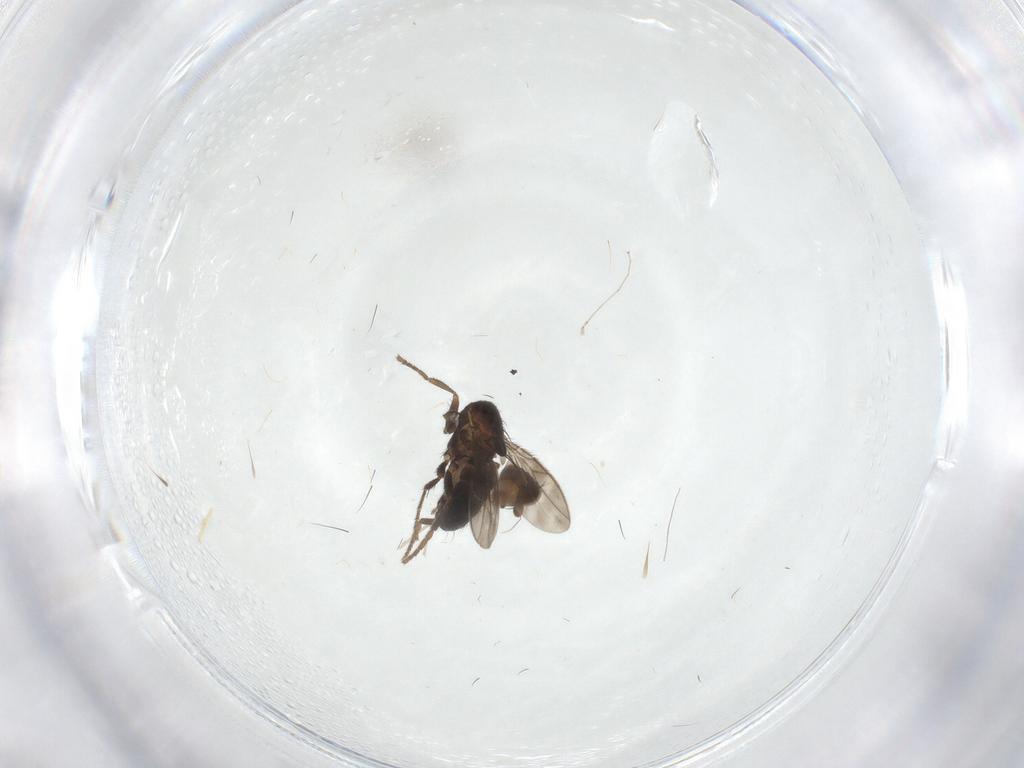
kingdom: Animalia
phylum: Arthropoda
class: Insecta
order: Diptera
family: Sphaeroceridae
